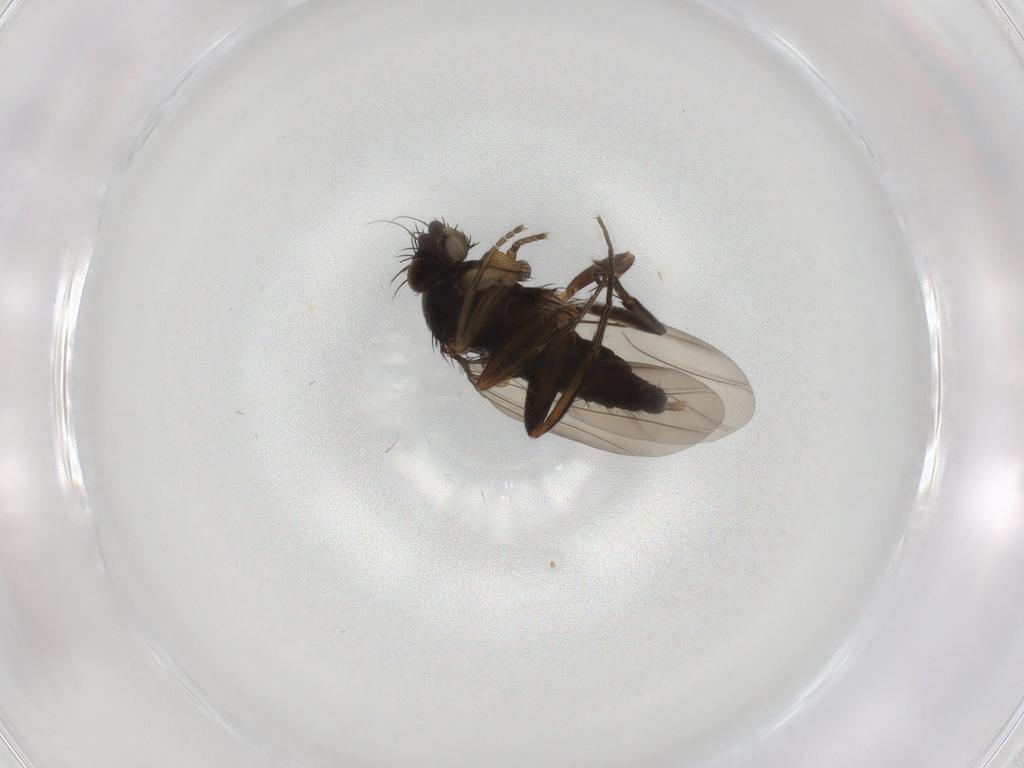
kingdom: Animalia
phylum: Arthropoda
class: Insecta
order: Diptera
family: Phoridae
